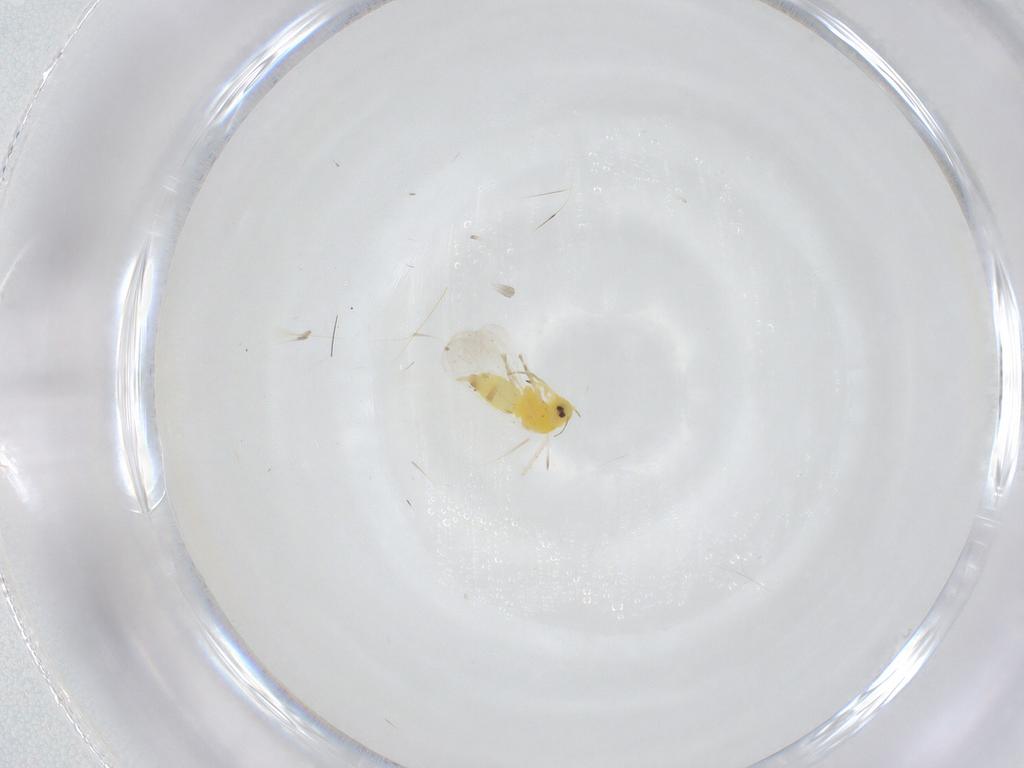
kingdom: Animalia
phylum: Arthropoda
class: Insecta
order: Hemiptera
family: Aleyrodidae
